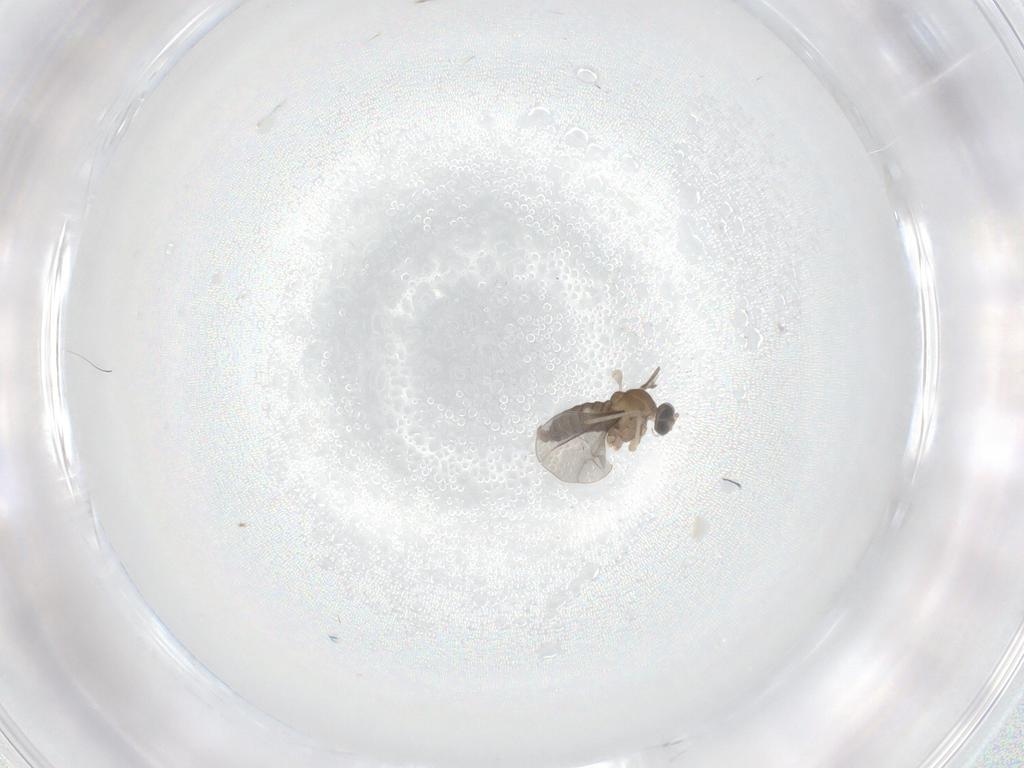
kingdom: Animalia
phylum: Arthropoda
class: Insecta
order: Diptera
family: Cecidomyiidae
